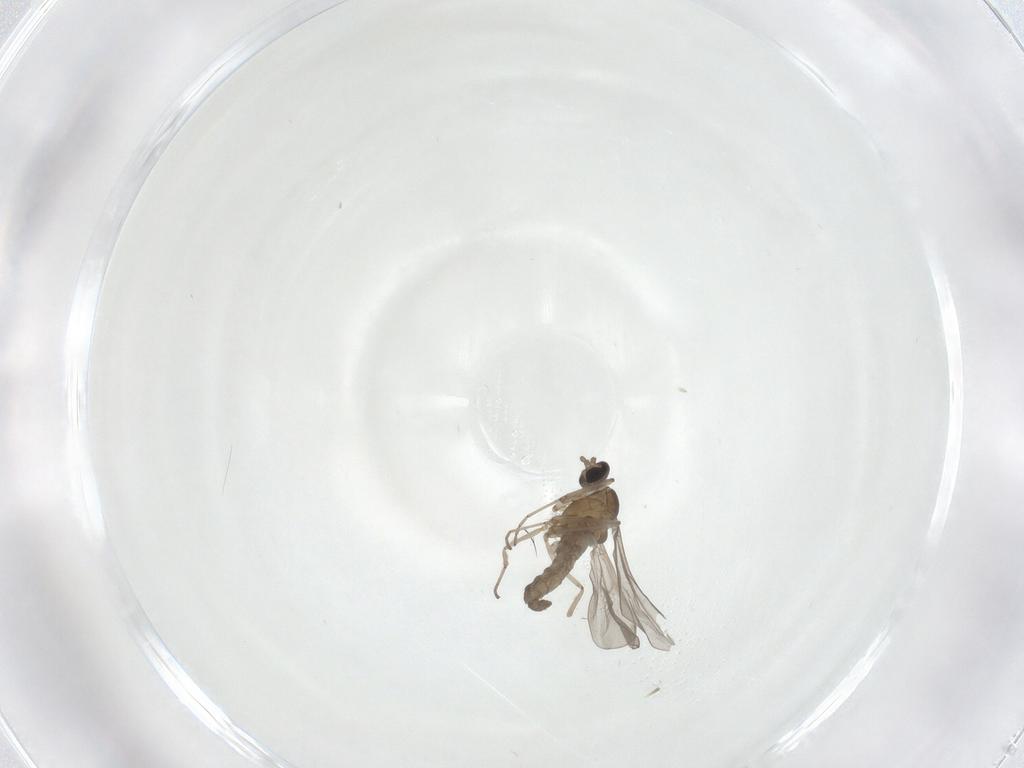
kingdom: Animalia
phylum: Arthropoda
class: Insecta
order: Diptera
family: Cecidomyiidae
